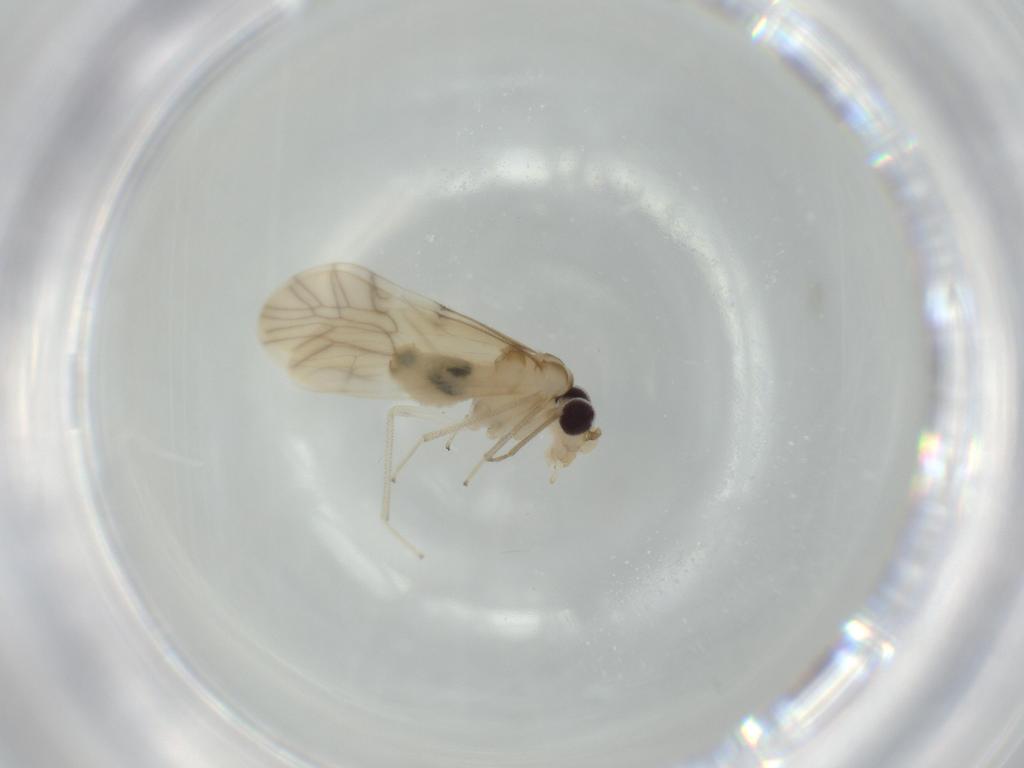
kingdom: Animalia
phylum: Arthropoda
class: Insecta
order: Psocodea
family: Caeciliusidae
